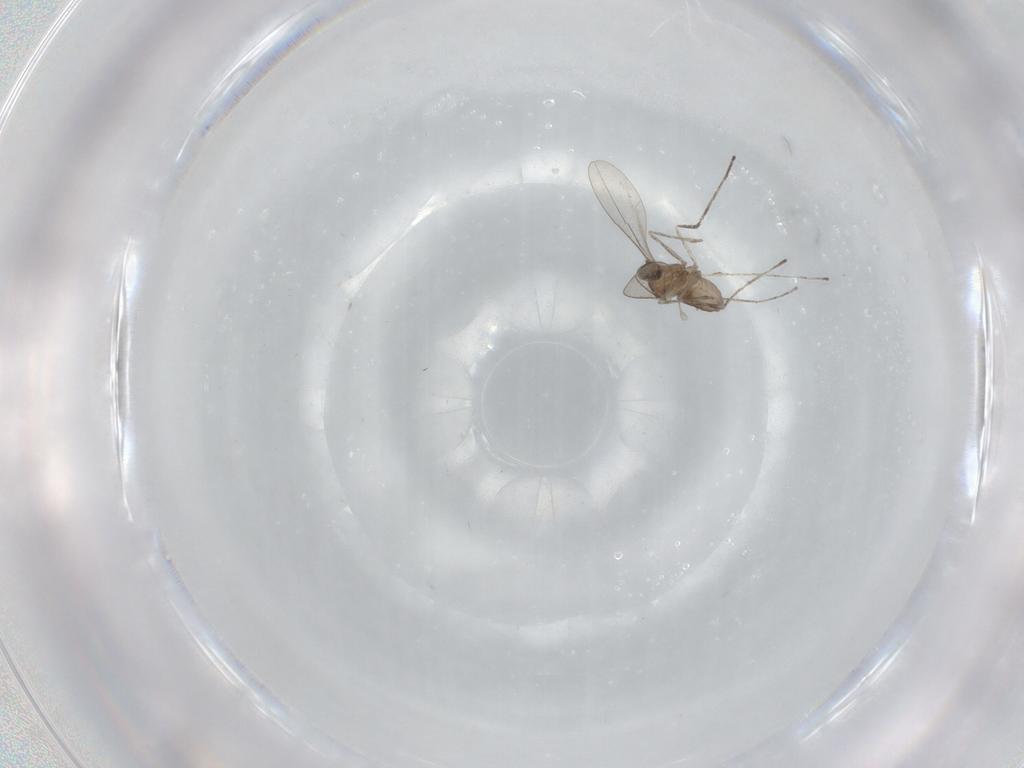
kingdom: Animalia
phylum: Arthropoda
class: Insecta
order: Diptera
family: Cecidomyiidae
